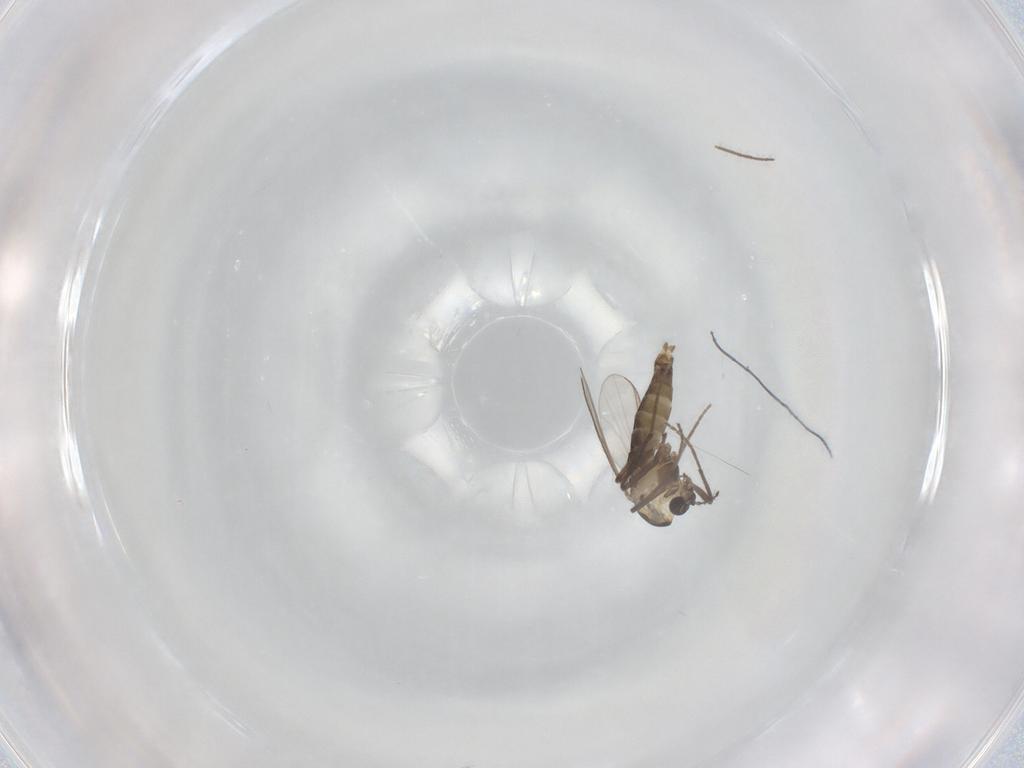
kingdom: Animalia
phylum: Arthropoda
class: Insecta
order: Diptera
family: Chironomidae
